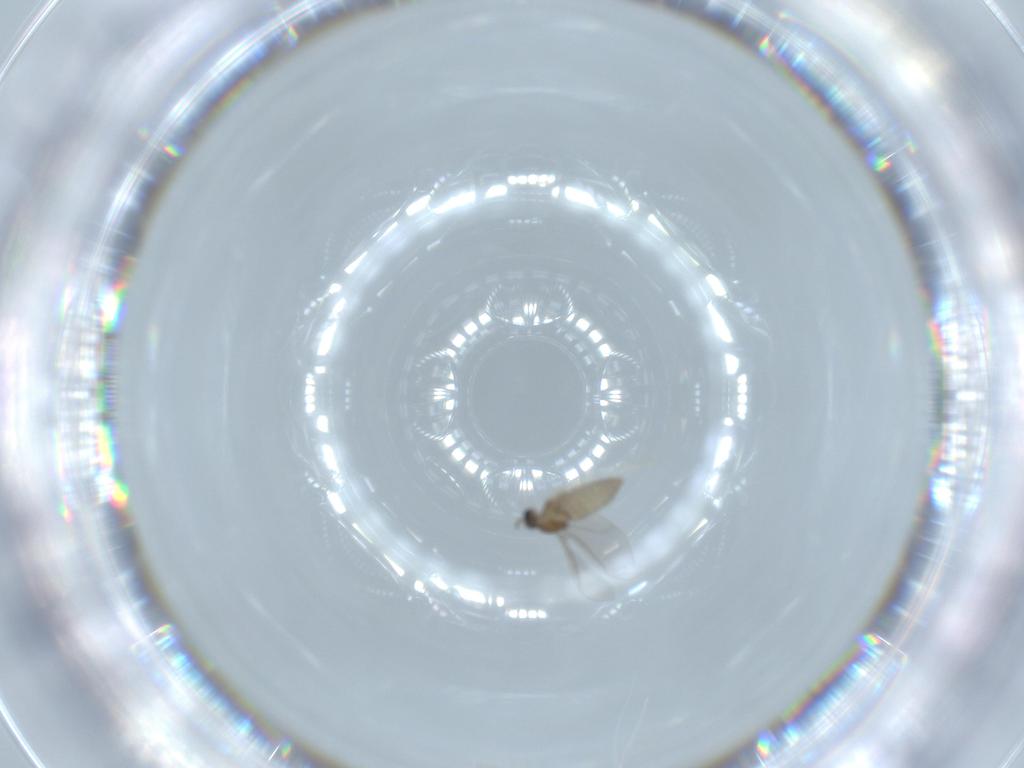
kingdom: Animalia
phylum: Arthropoda
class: Insecta
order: Diptera
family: Cecidomyiidae
